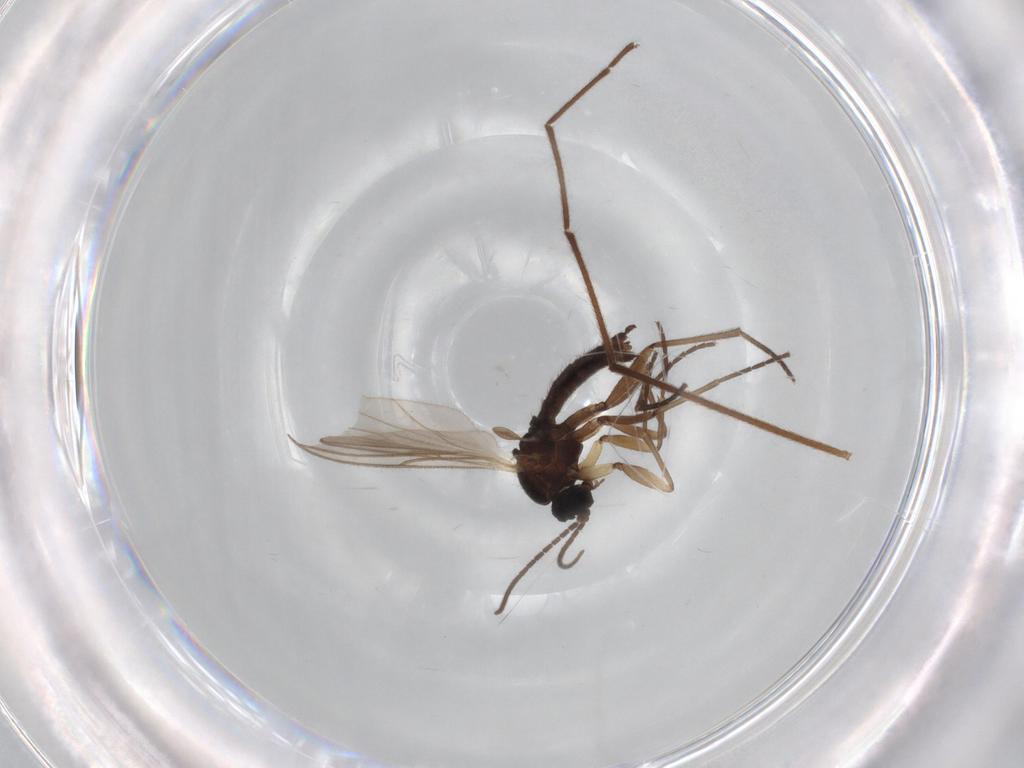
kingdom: Animalia
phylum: Arthropoda
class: Insecta
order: Diptera
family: Sciaridae
